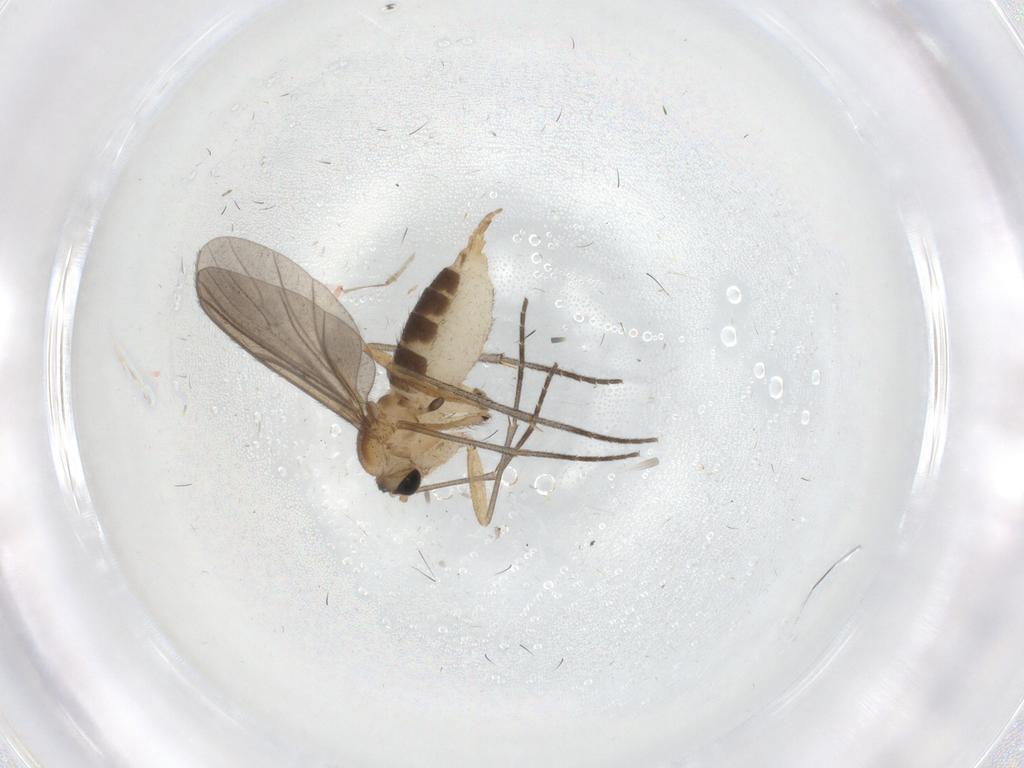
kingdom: Animalia
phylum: Arthropoda
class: Insecta
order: Diptera
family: Sciaridae
